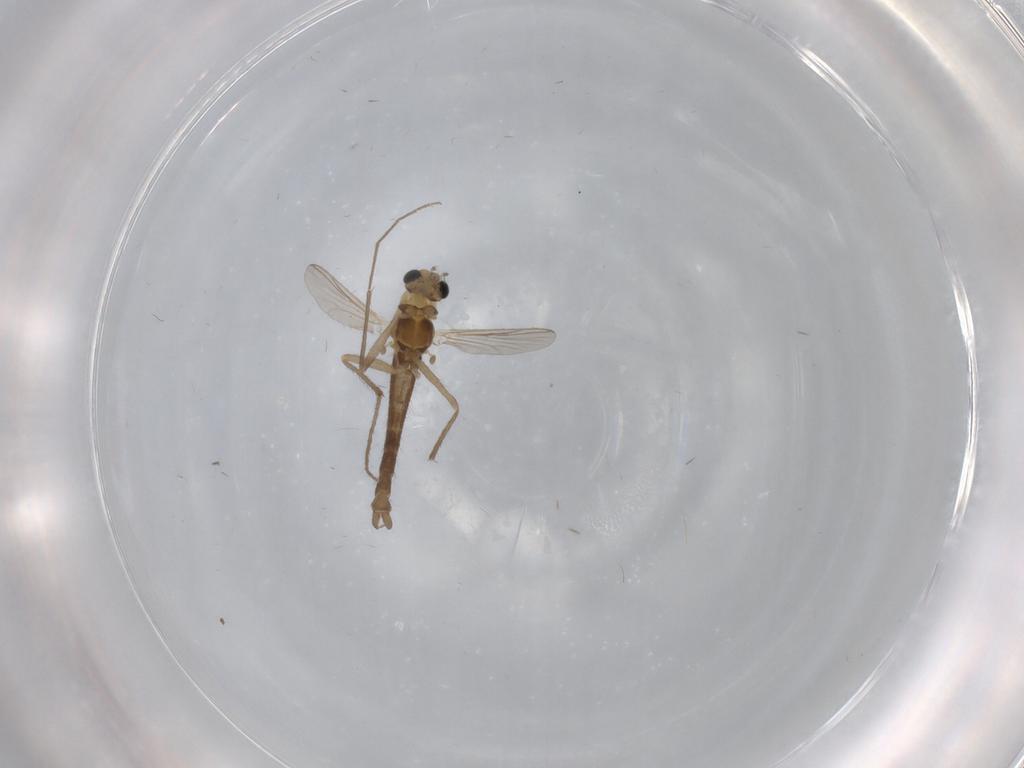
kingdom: Animalia
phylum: Arthropoda
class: Insecta
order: Diptera
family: Chironomidae
